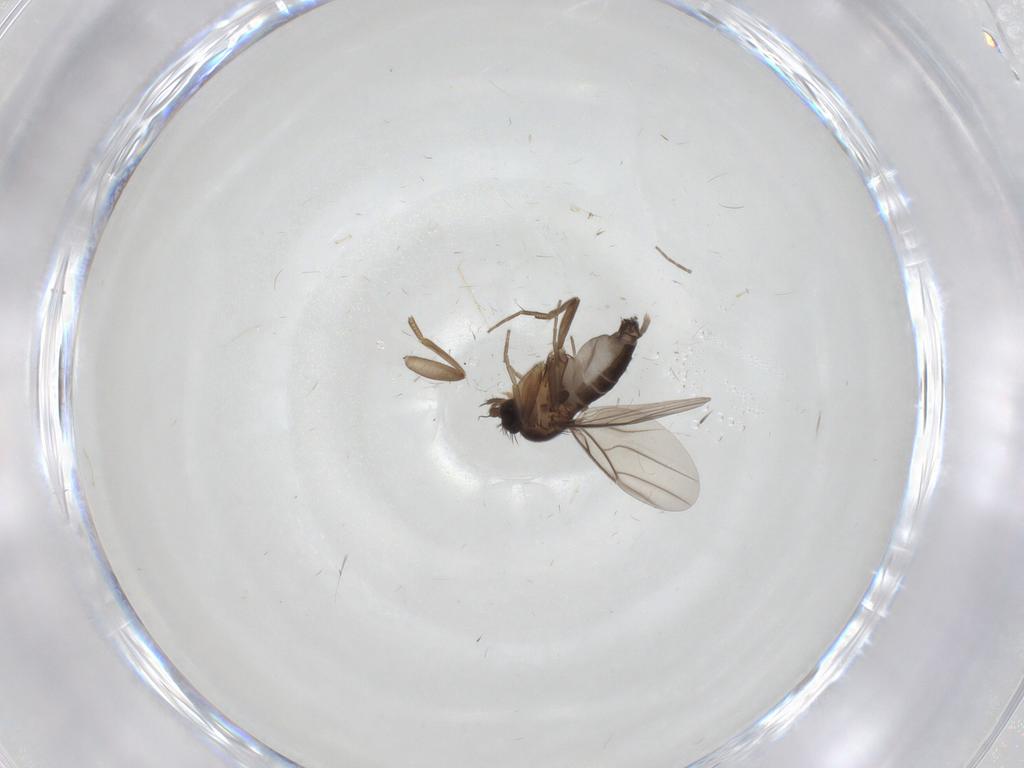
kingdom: Animalia
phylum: Arthropoda
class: Insecta
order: Diptera
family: Phoridae
